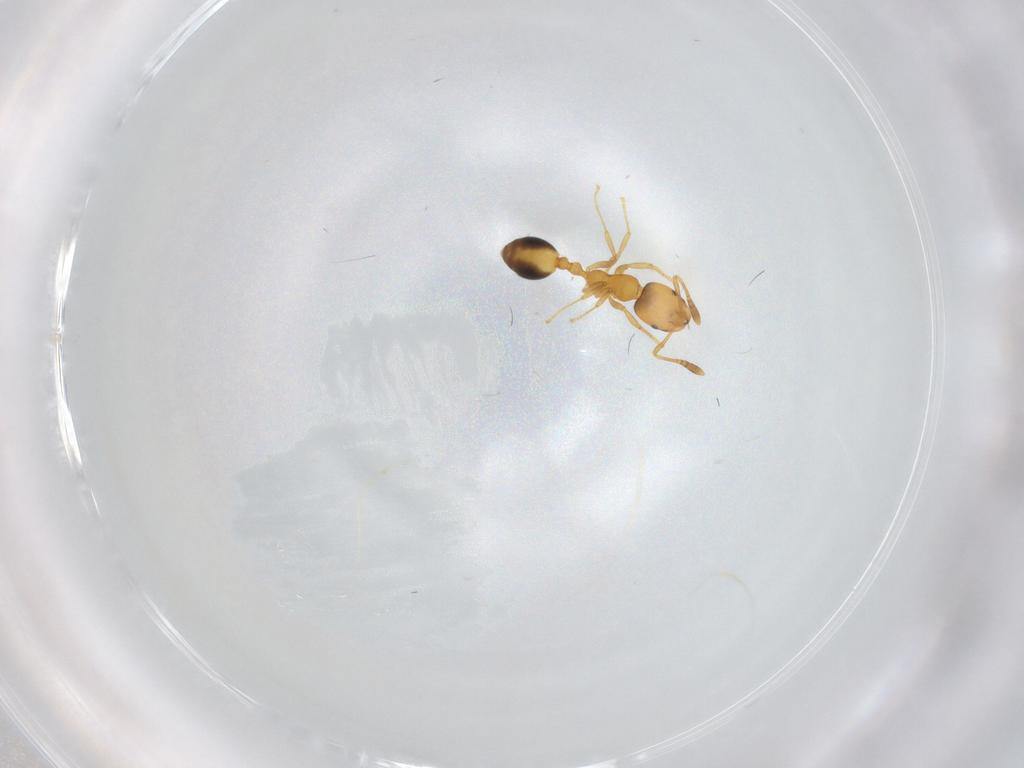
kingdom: Animalia
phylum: Arthropoda
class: Insecta
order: Hymenoptera
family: Formicidae
